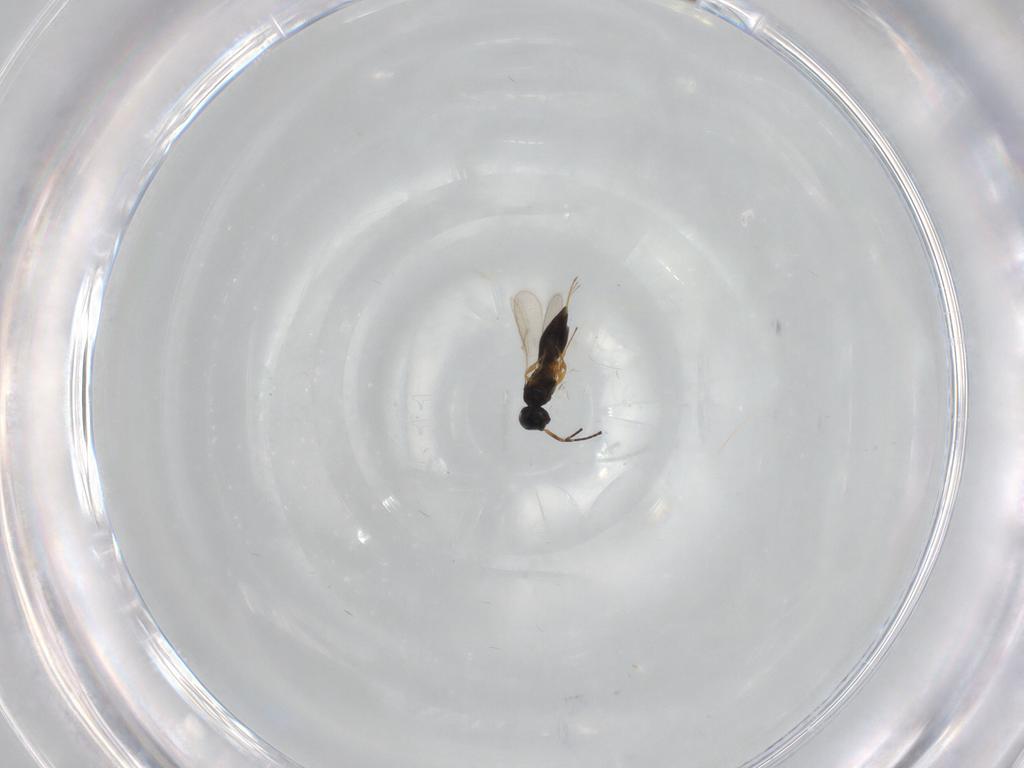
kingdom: Animalia
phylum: Arthropoda
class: Insecta
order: Hymenoptera
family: Scelionidae
